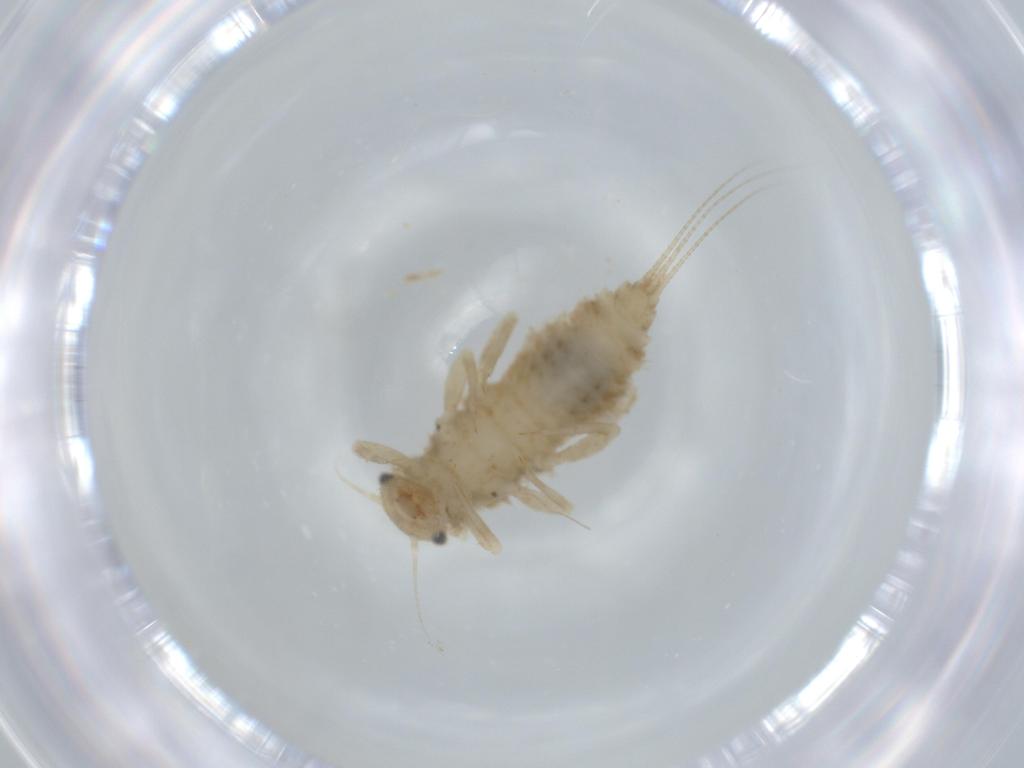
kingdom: Animalia
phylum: Arthropoda
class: Insecta
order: Ephemeroptera
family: Caenidae
